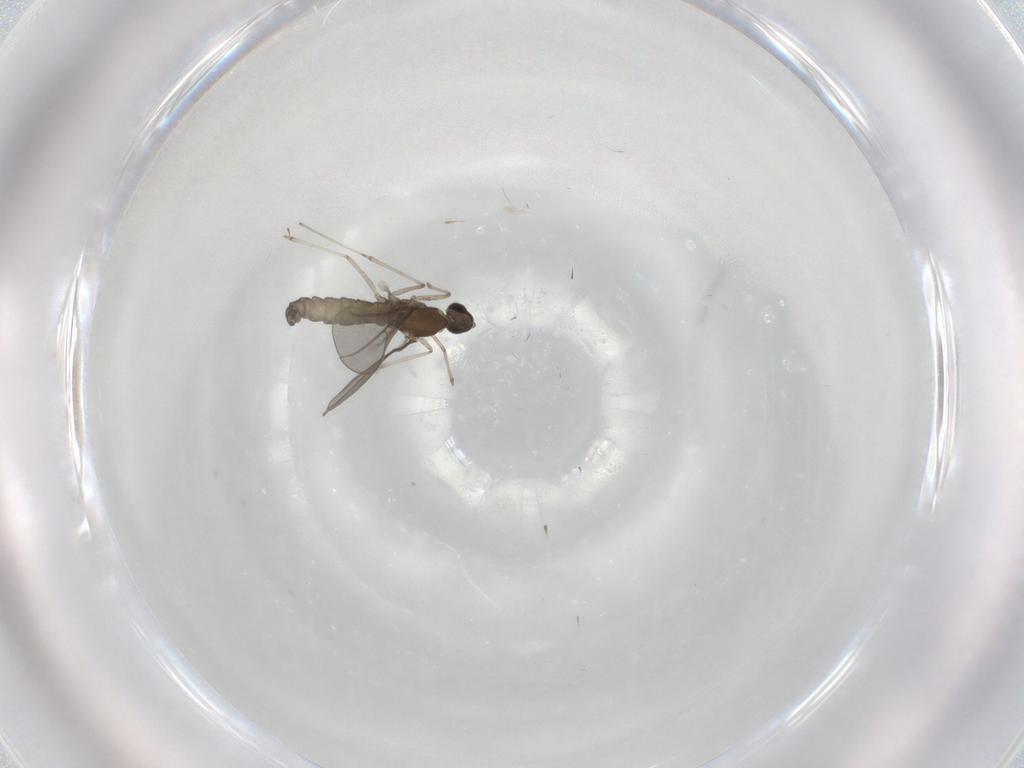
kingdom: Animalia
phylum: Arthropoda
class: Insecta
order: Diptera
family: Cecidomyiidae
